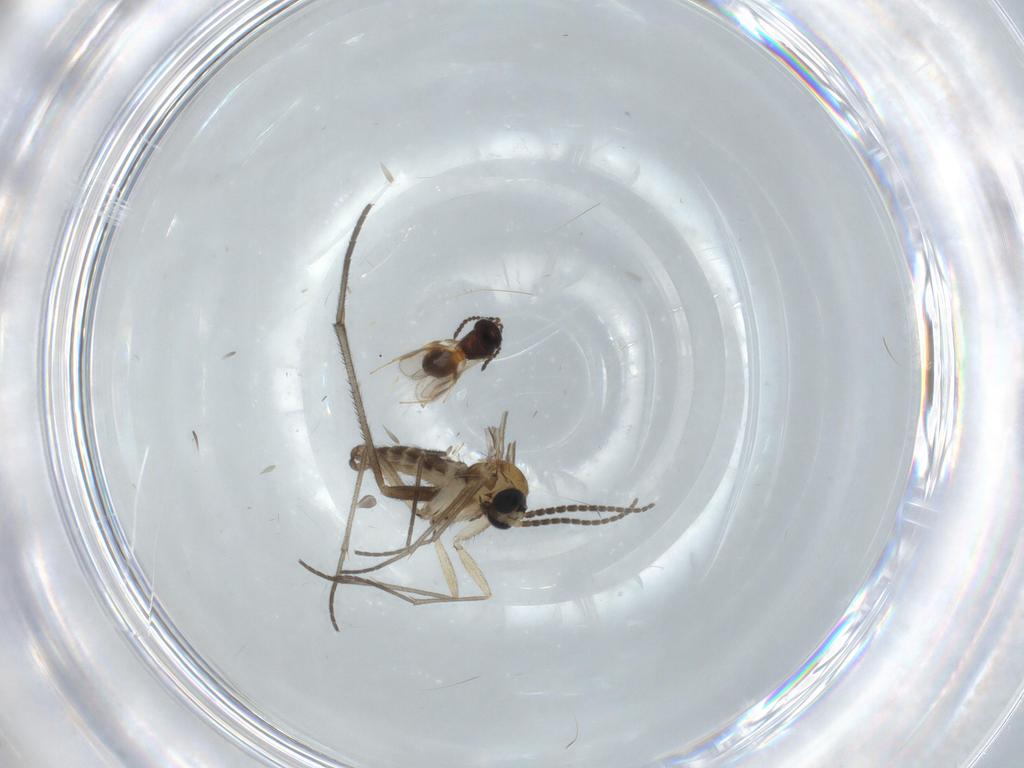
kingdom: Animalia
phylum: Arthropoda
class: Insecta
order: Diptera
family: Sciaridae
